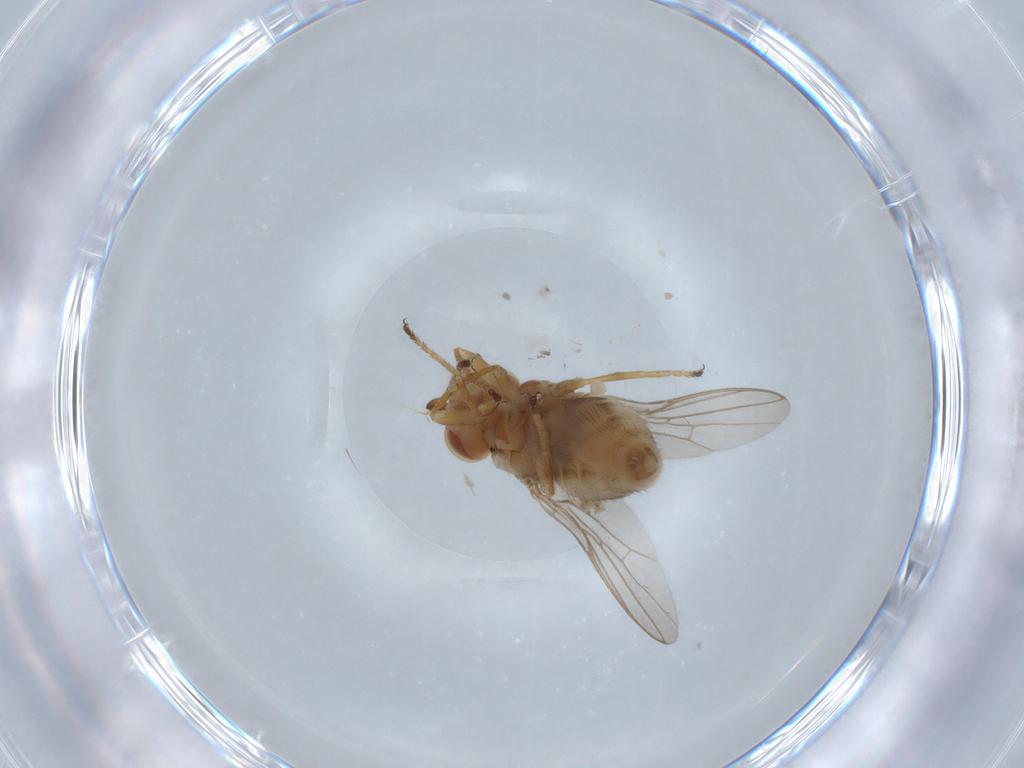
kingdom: Animalia
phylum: Arthropoda
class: Insecta
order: Diptera
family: Chloropidae
